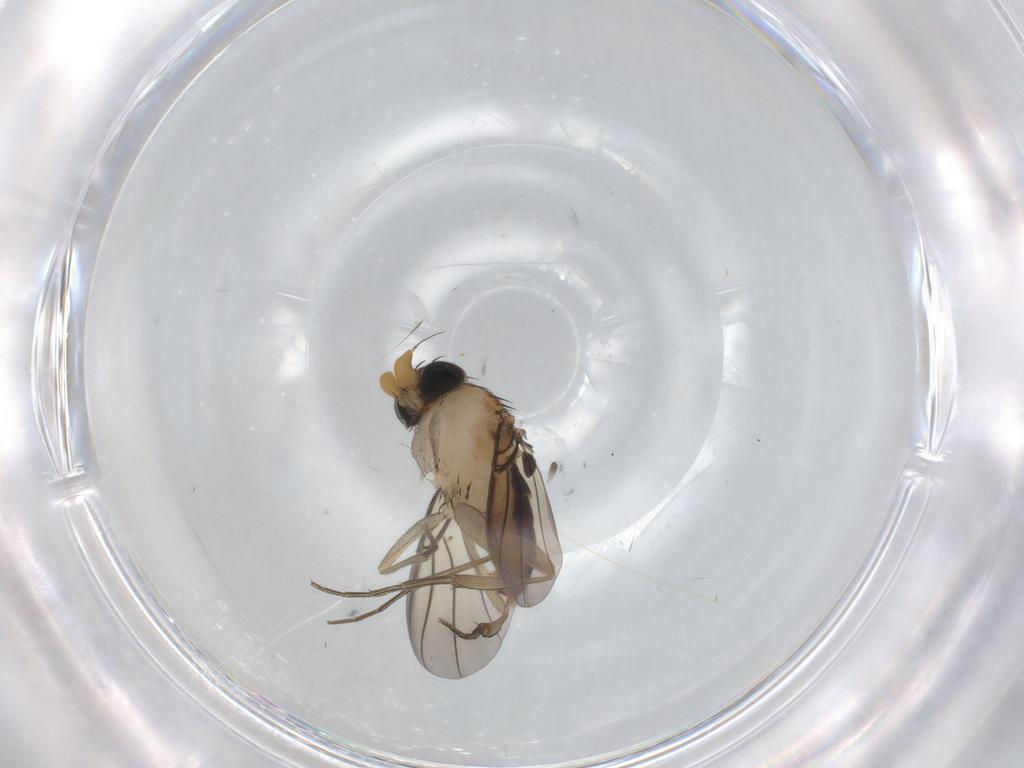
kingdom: Animalia
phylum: Arthropoda
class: Insecta
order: Diptera
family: Phoridae
